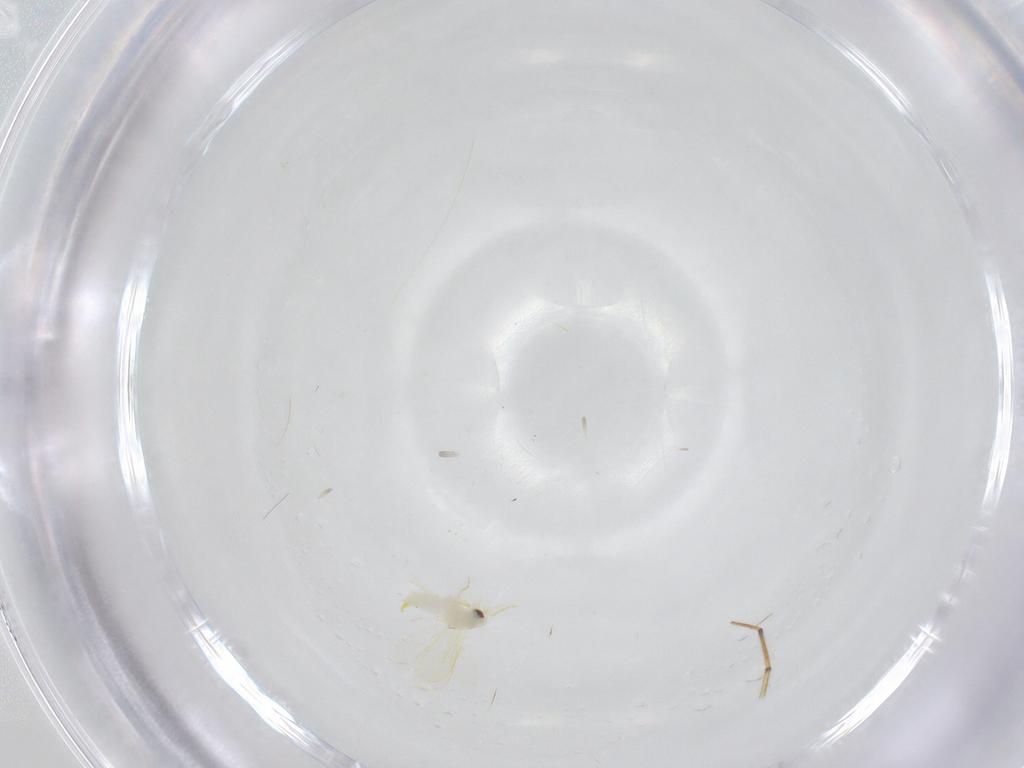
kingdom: Animalia
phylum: Arthropoda
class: Insecta
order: Hemiptera
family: Aleyrodidae
